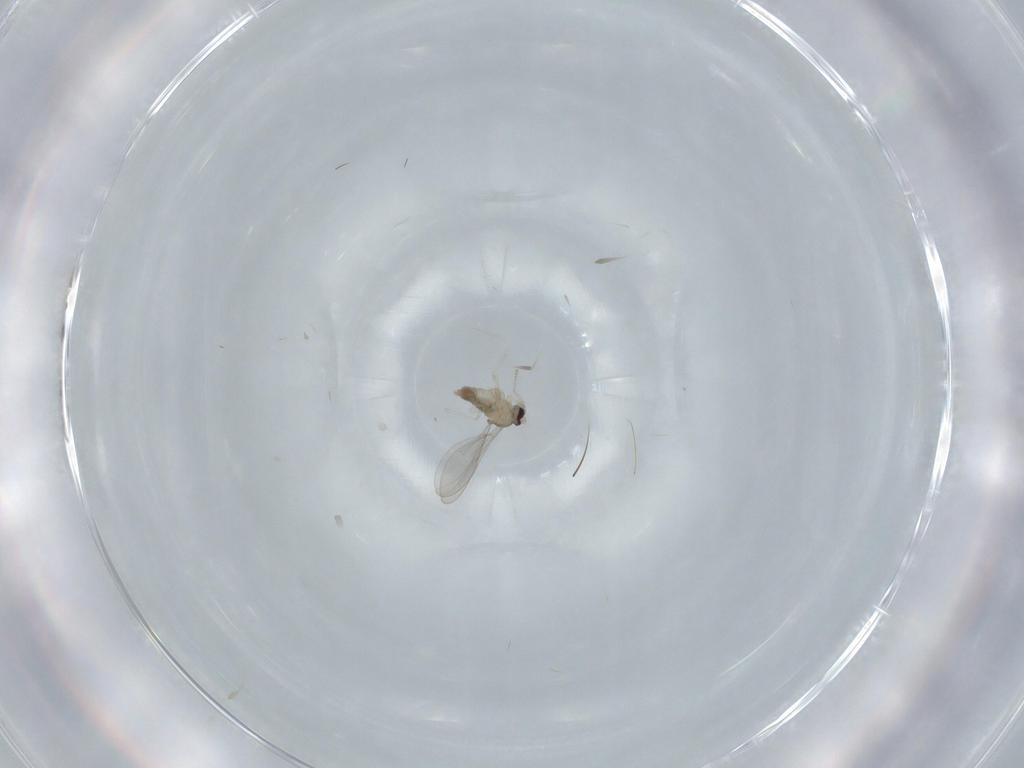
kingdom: Animalia
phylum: Arthropoda
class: Insecta
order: Diptera
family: Cecidomyiidae
